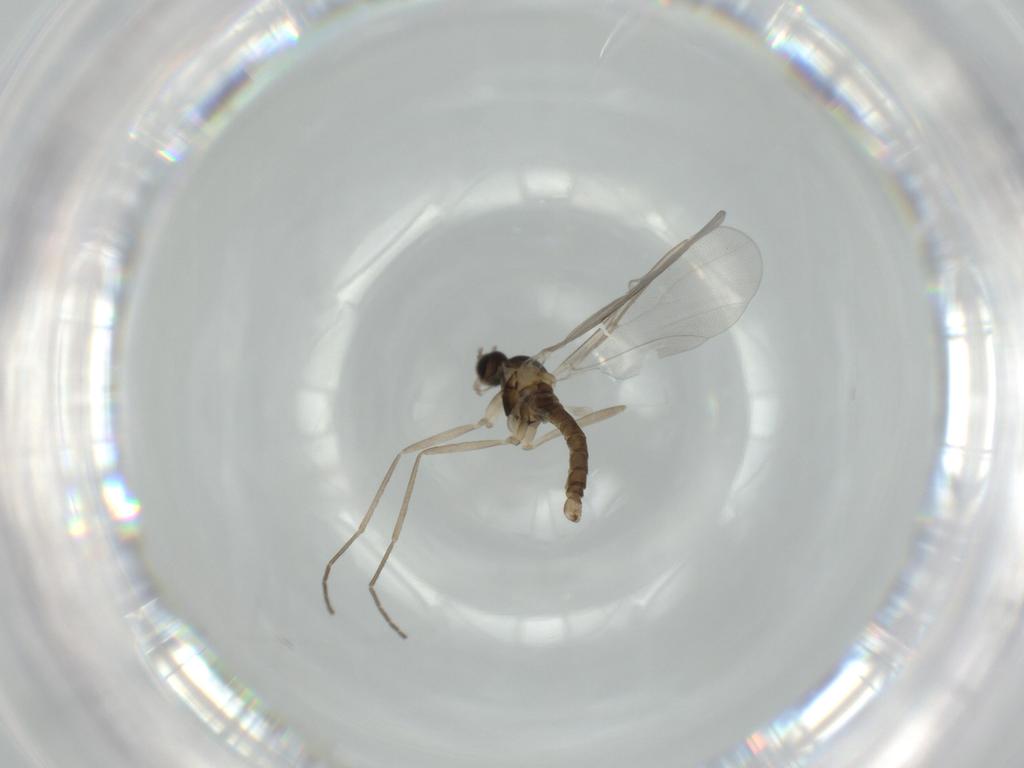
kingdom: Animalia
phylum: Arthropoda
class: Insecta
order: Diptera
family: Cecidomyiidae
